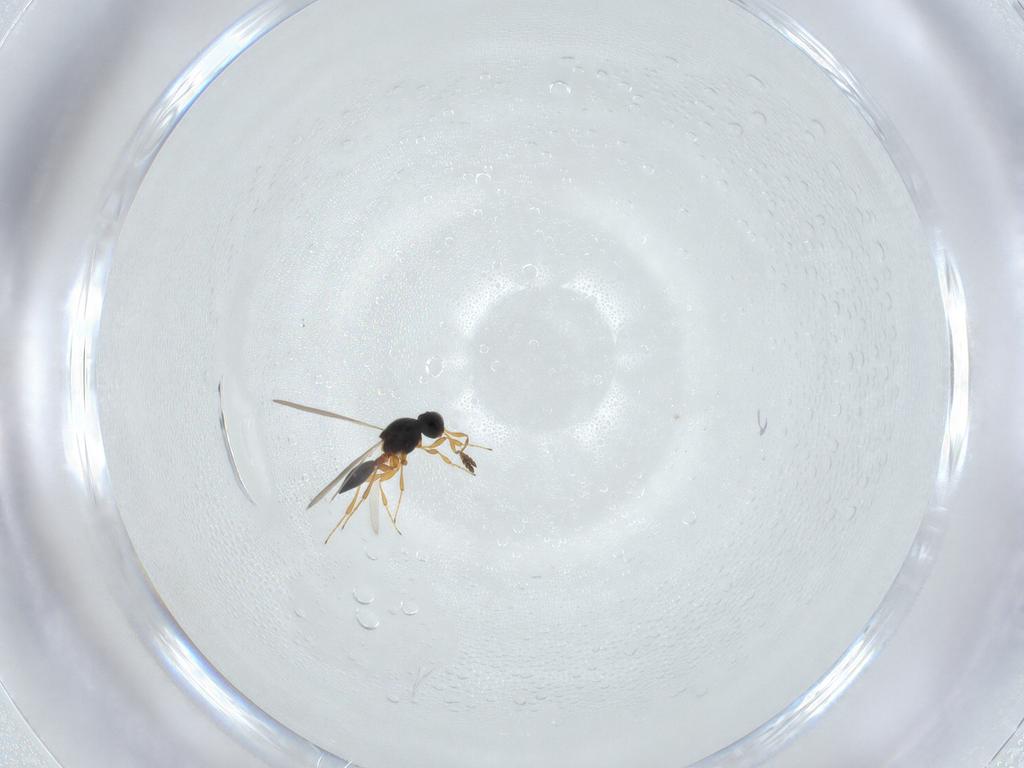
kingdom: Animalia
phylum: Arthropoda
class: Insecta
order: Hymenoptera
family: Platygastridae
